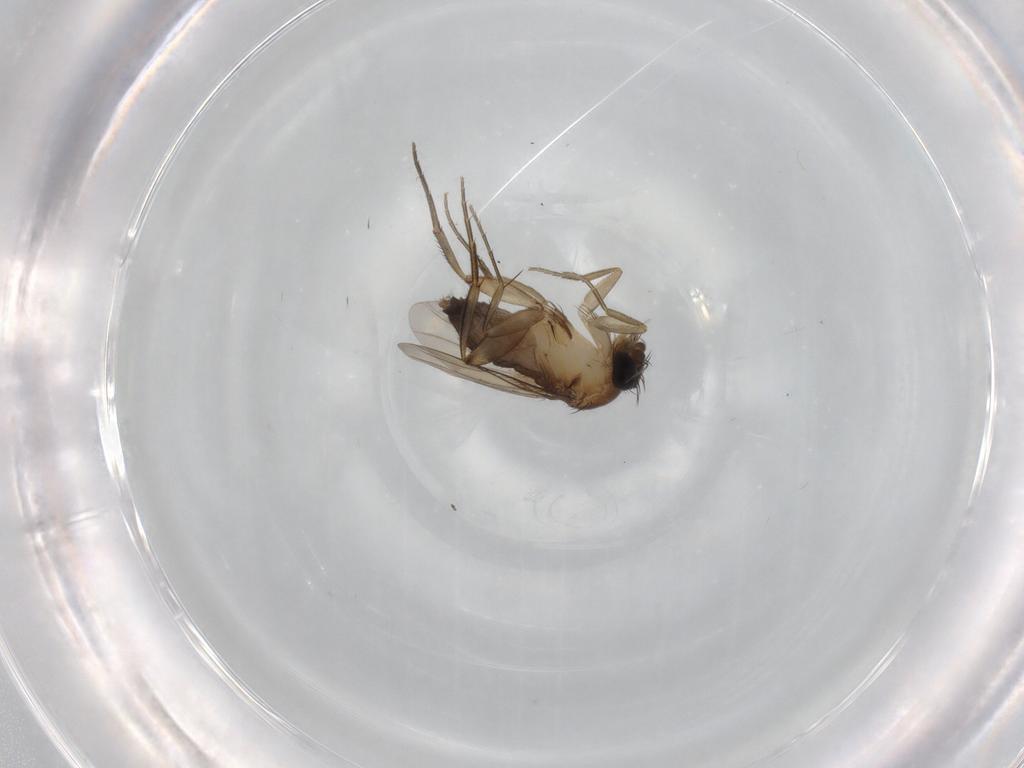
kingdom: Animalia
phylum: Arthropoda
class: Insecta
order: Diptera
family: Phoridae
